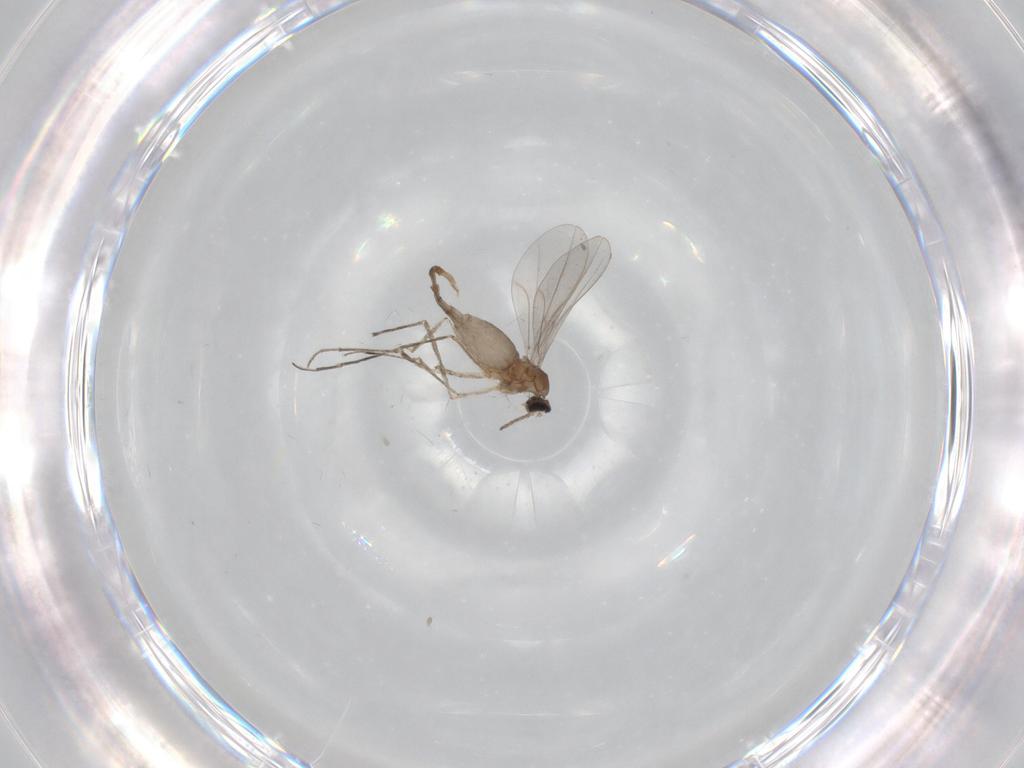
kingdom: Animalia
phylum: Arthropoda
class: Insecta
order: Diptera
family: Cecidomyiidae
